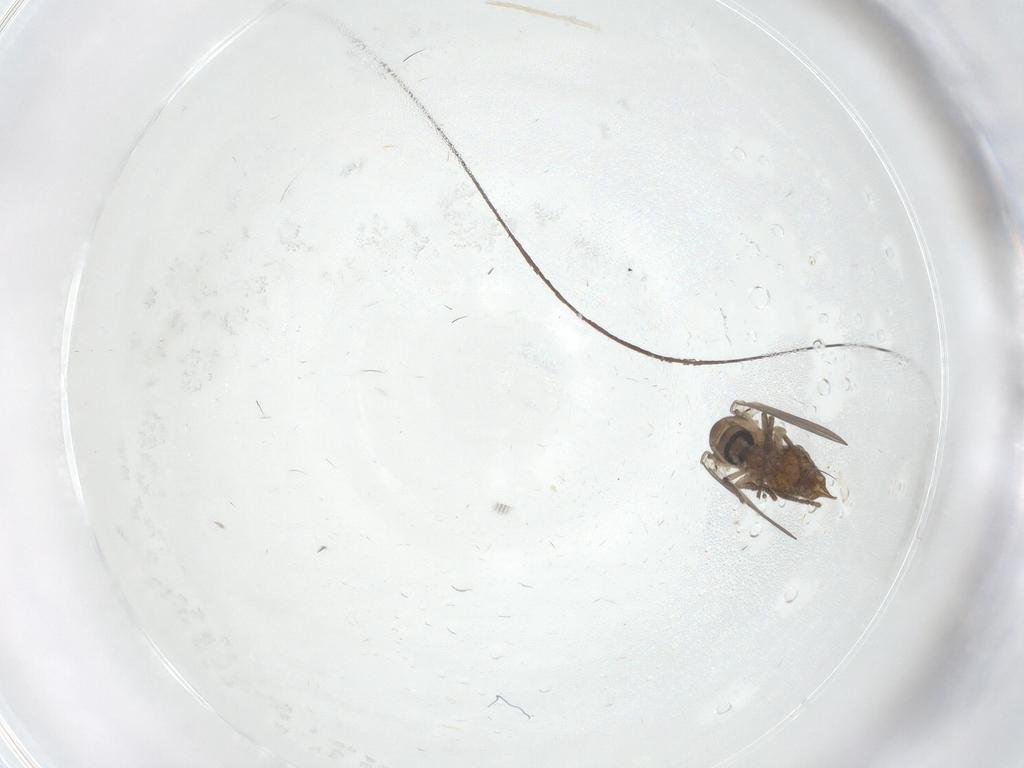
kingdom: Animalia
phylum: Arthropoda
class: Insecta
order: Diptera
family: Psychodidae
